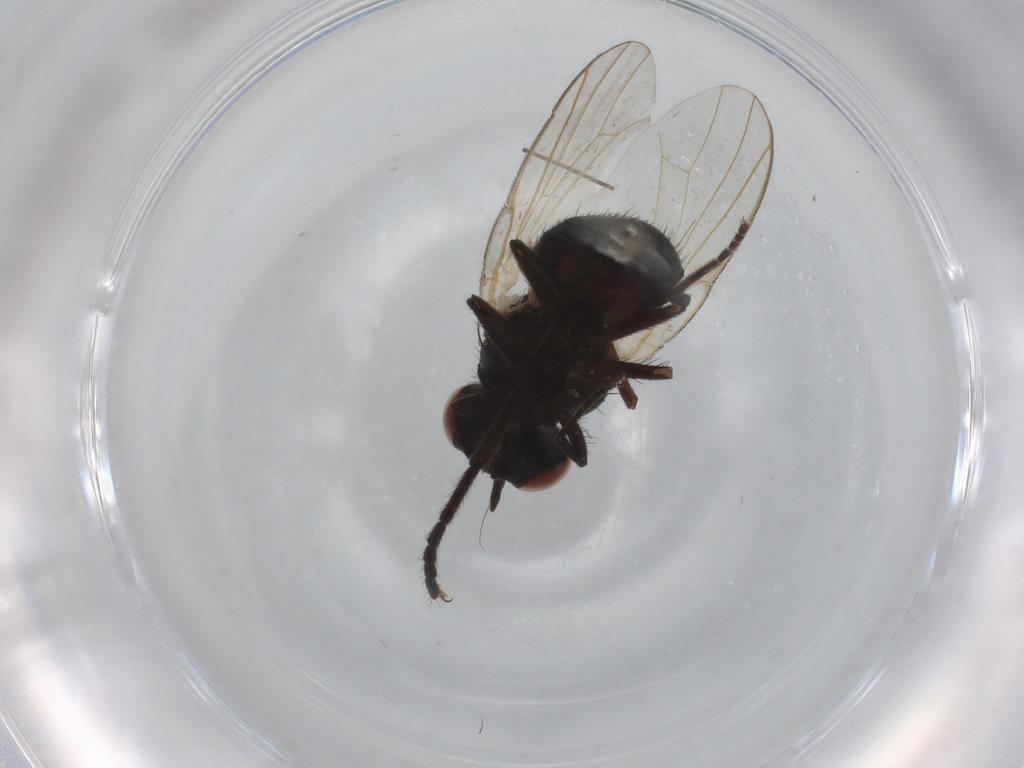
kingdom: Animalia
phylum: Arthropoda
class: Insecta
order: Diptera
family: Lonchaeidae
